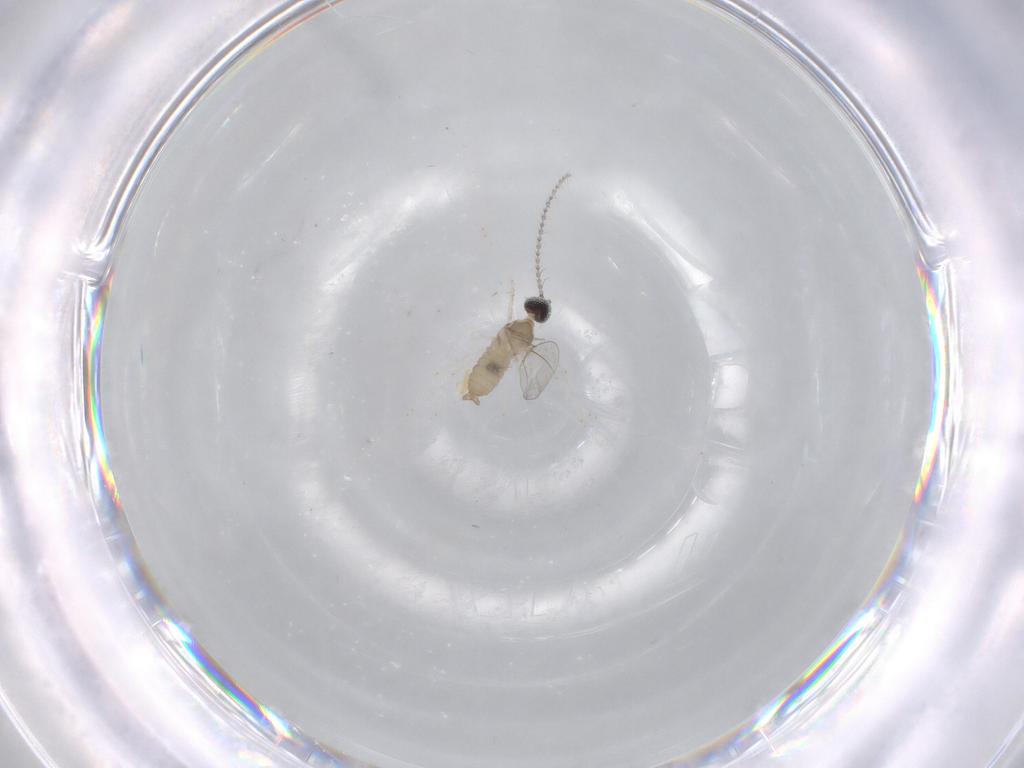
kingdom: Animalia
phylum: Arthropoda
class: Insecta
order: Diptera
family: Cecidomyiidae
